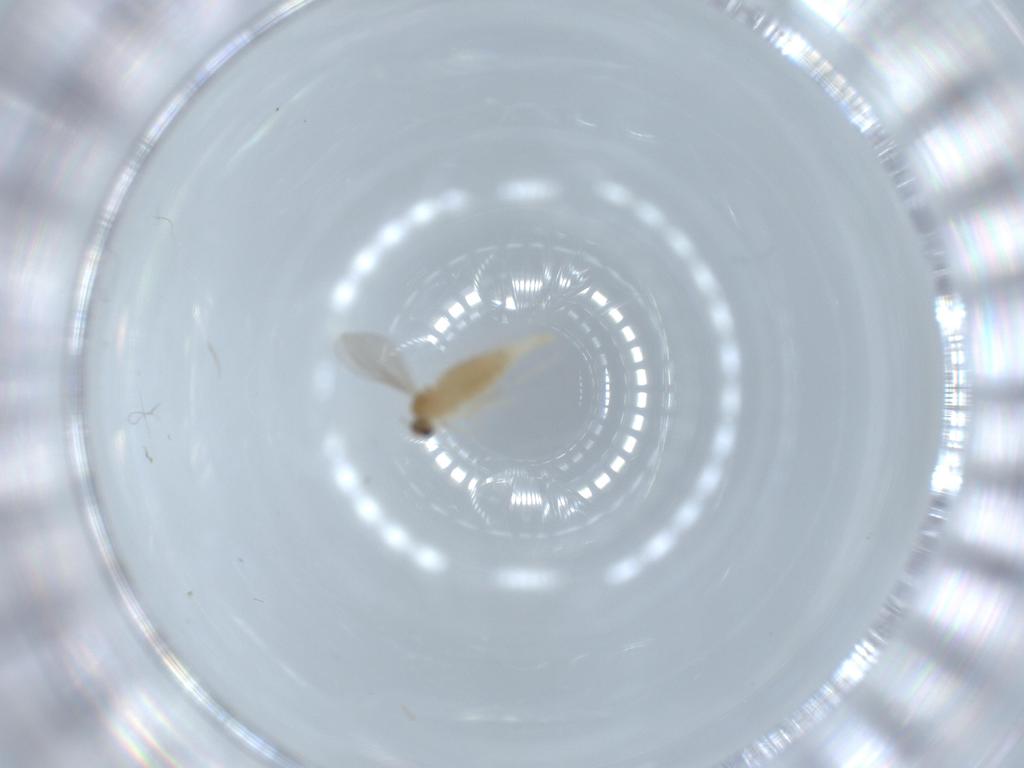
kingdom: Animalia
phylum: Arthropoda
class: Insecta
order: Diptera
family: Cecidomyiidae
